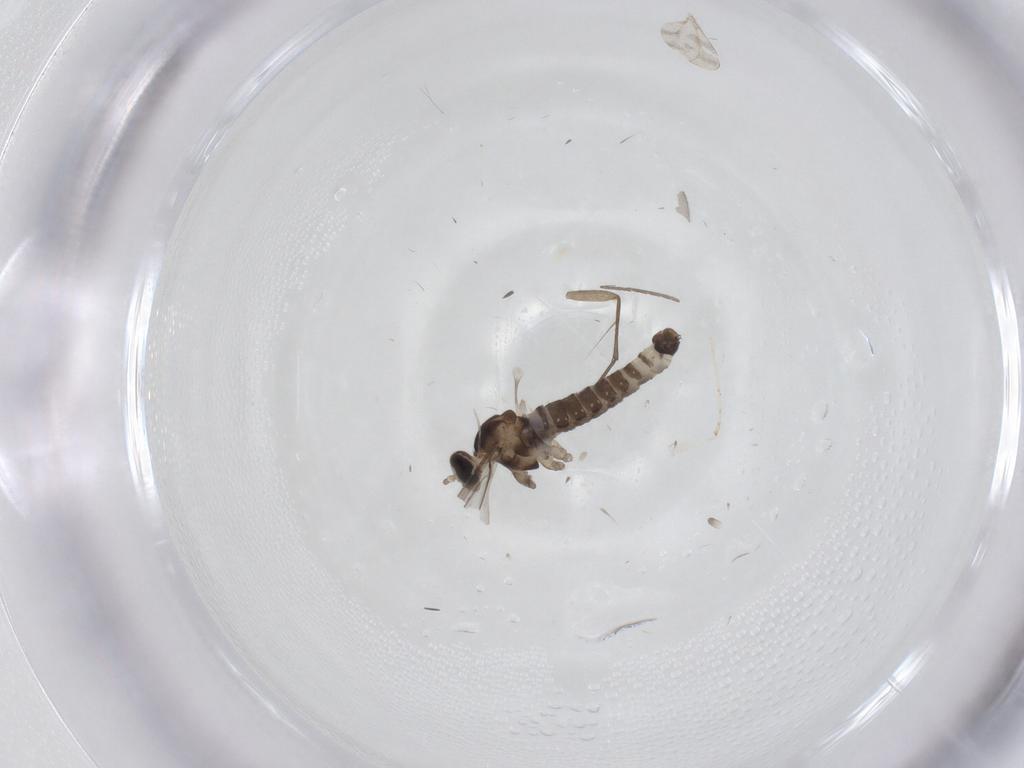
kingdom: Animalia
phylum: Arthropoda
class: Insecta
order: Diptera
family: Cecidomyiidae
